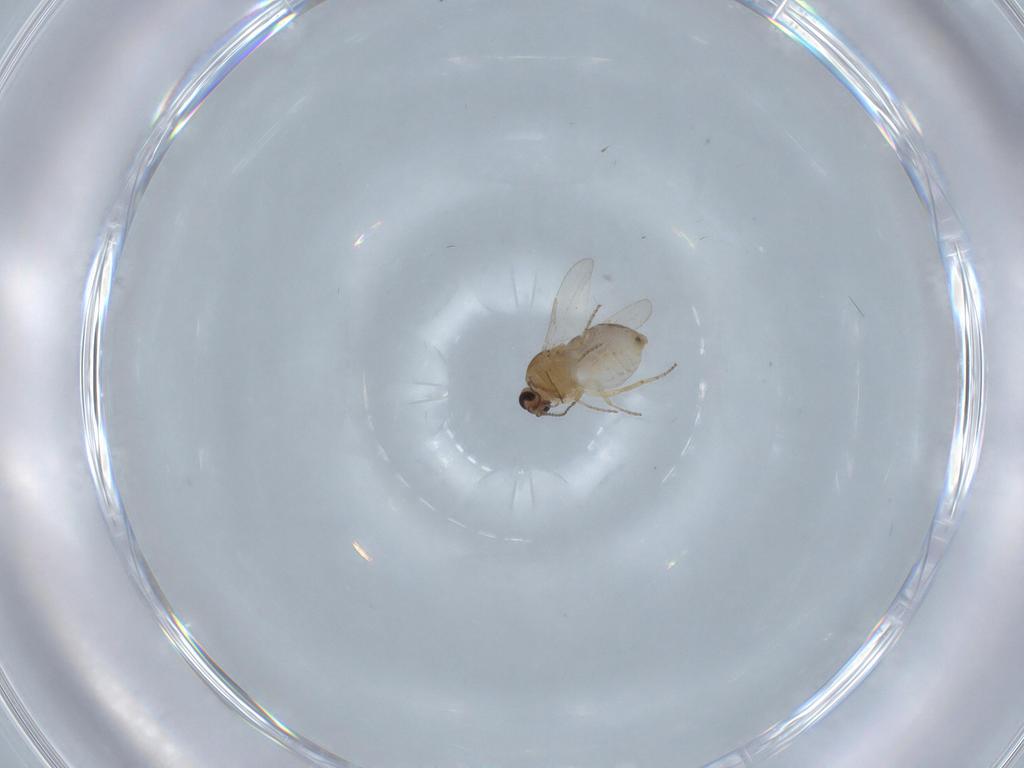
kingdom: Animalia
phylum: Arthropoda
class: Insecta
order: Diptera
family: Ceratopogonidae
